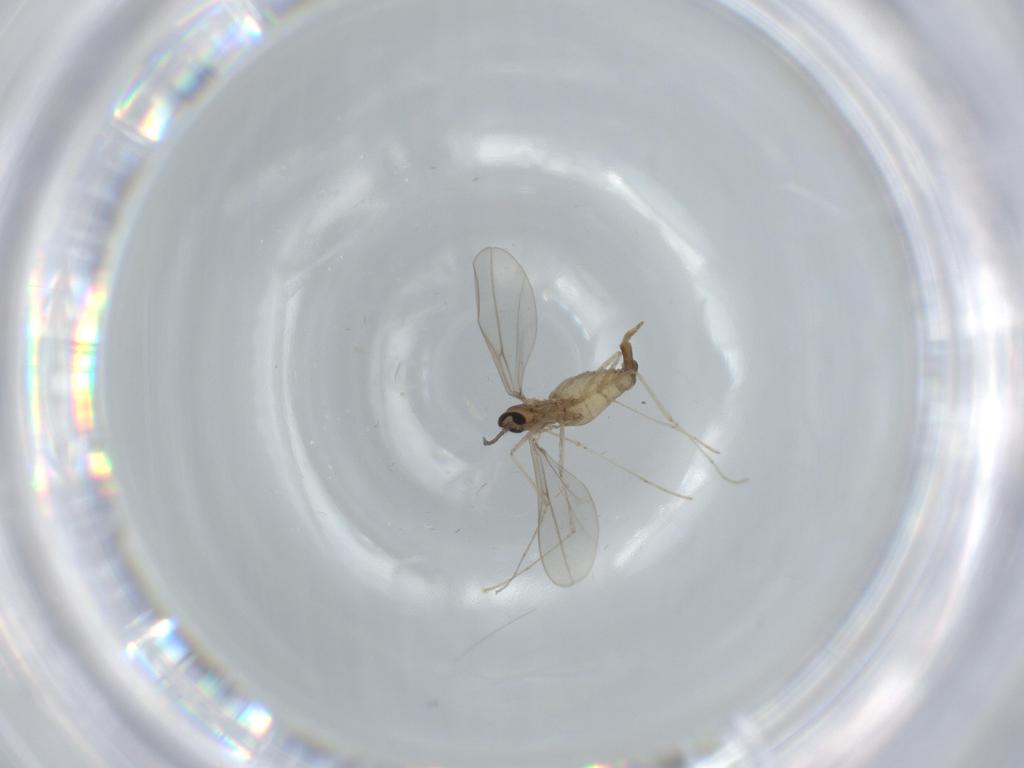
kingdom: Animalia
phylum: Arthropoda
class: Insecta
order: Diptera
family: Cecidomyiidae
